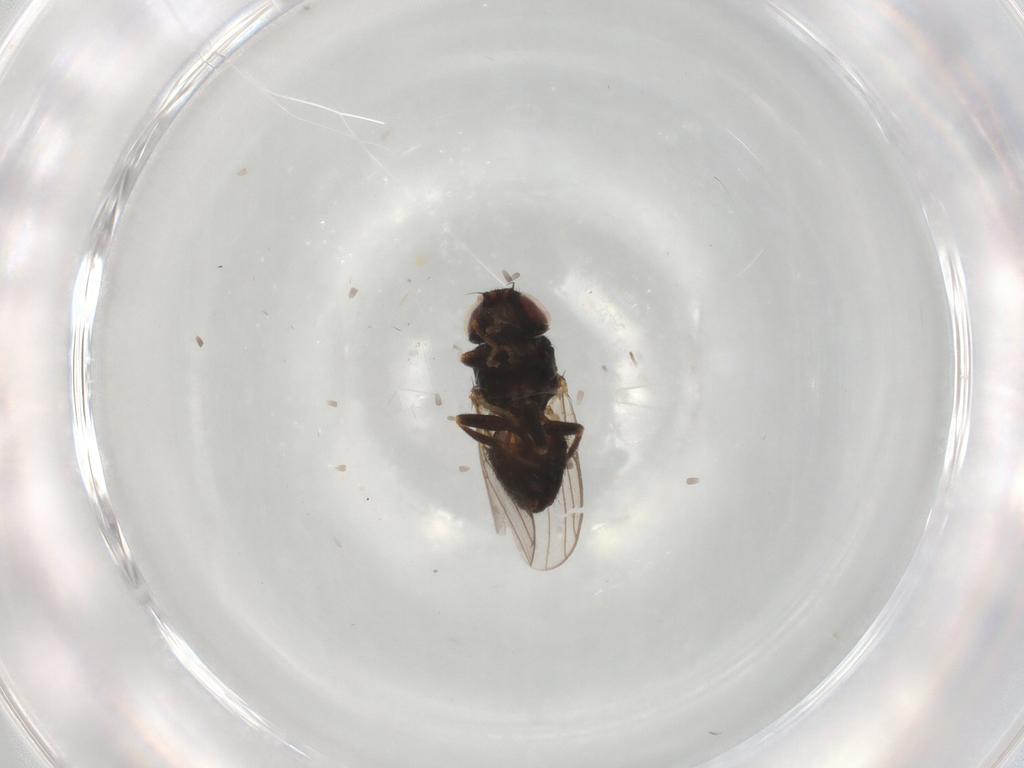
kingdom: Animalia
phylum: Arthropoda
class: Insecta
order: Diptera
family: Chloropidae
